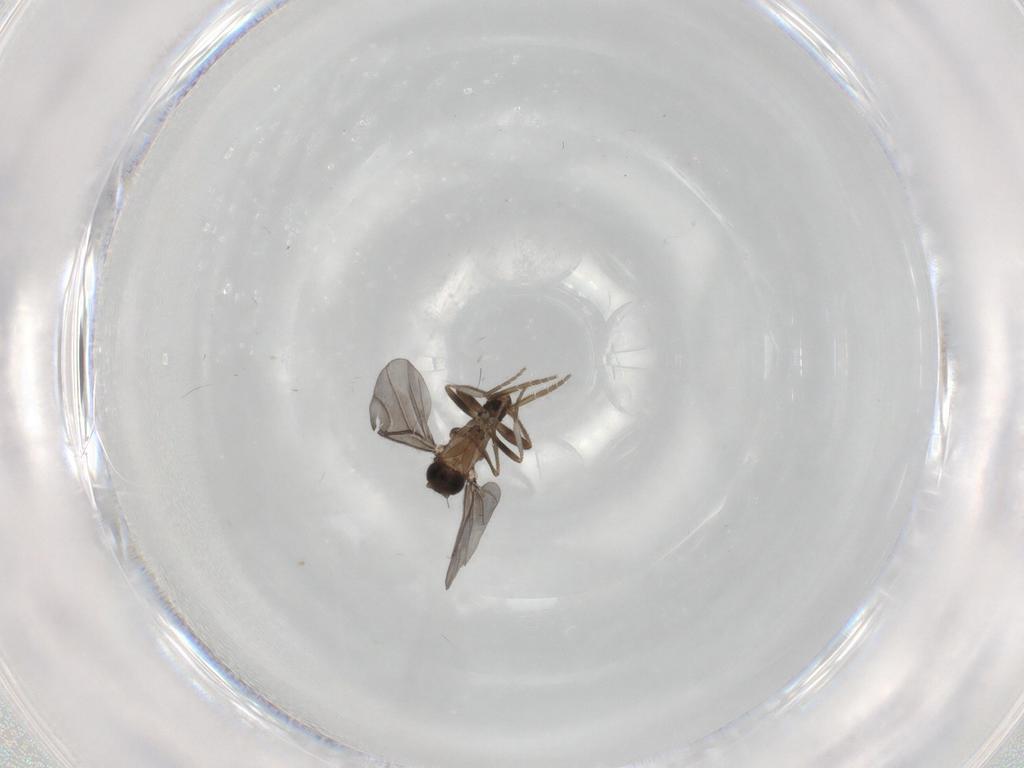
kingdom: Animalia
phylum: Arthropoda
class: Insecta
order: Diptera
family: Phoridae
